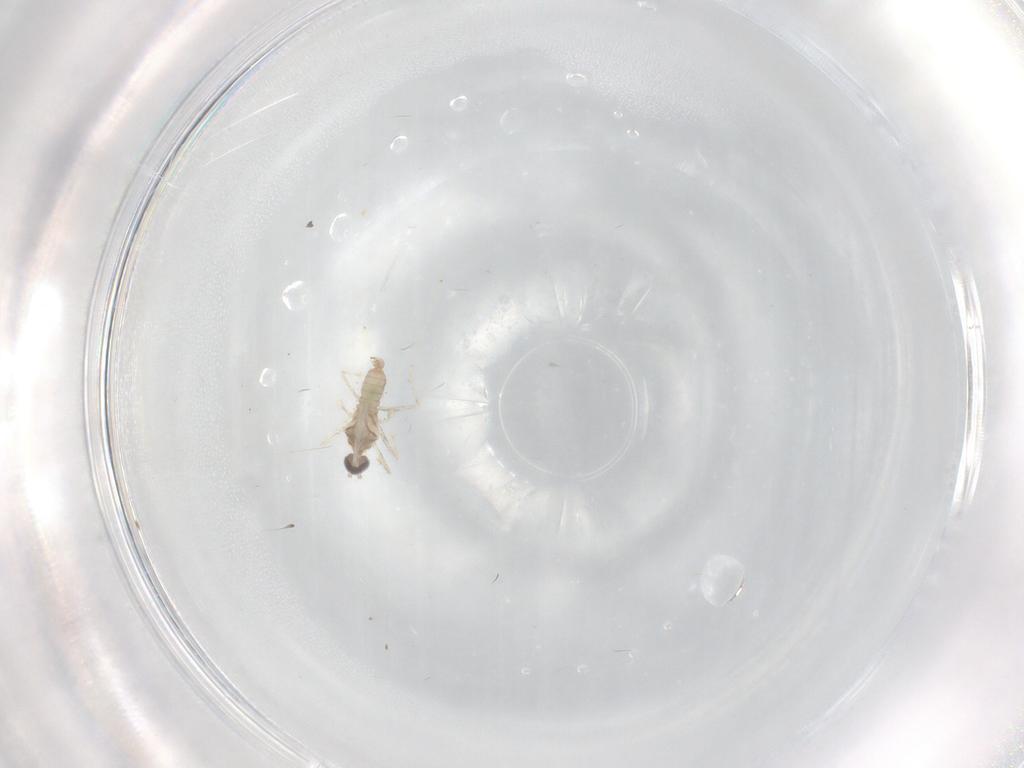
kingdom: Animalia
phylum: Arthropoda
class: Insecta
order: Diptera
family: Cecidomyiidae
